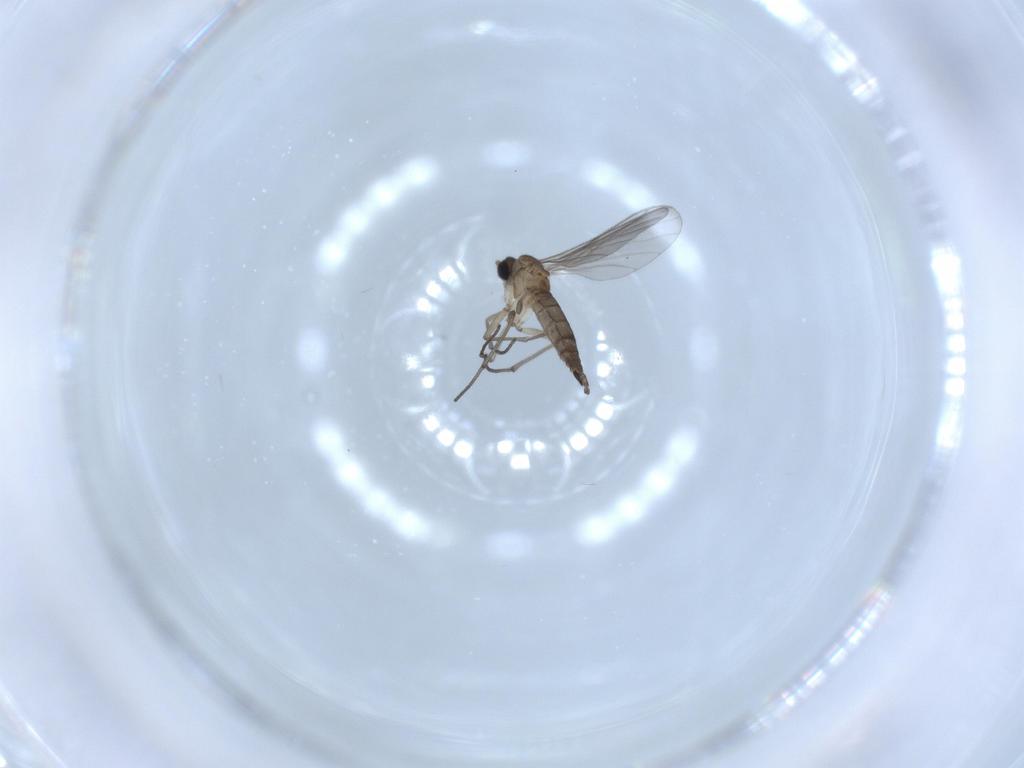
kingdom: Animalia
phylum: Arthropoda
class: Insecta
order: Diptera
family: Sciaridae
